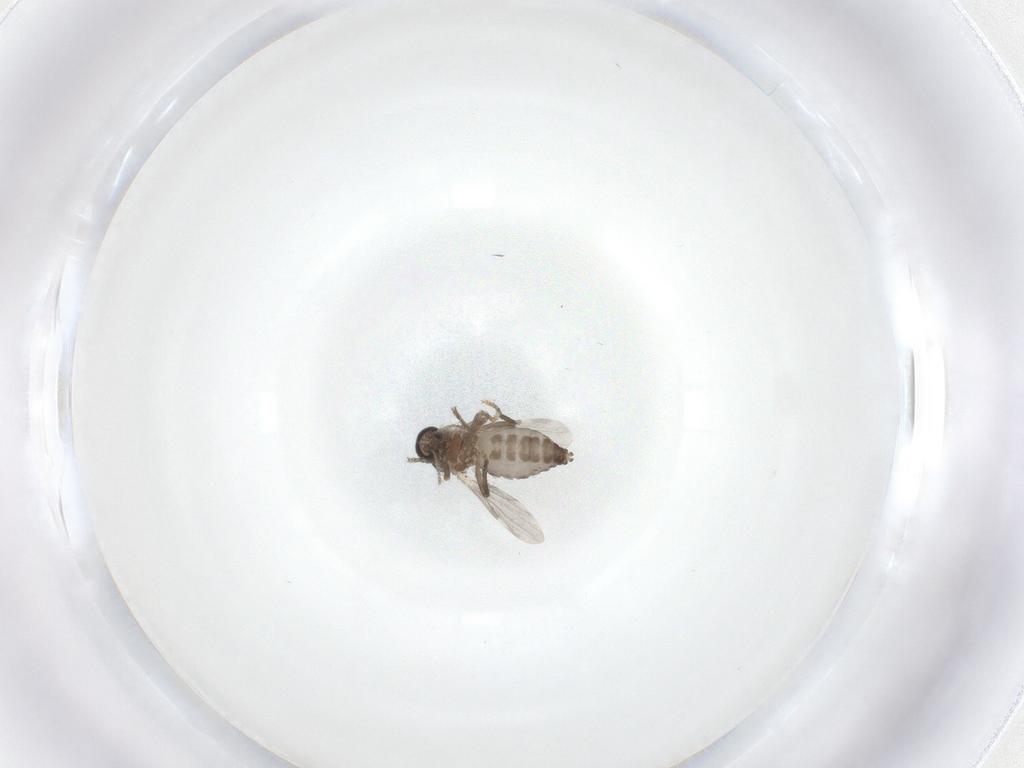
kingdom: Animalia
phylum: Arthropoda
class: Insecta
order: Diptera
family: Ceratopogonidae
